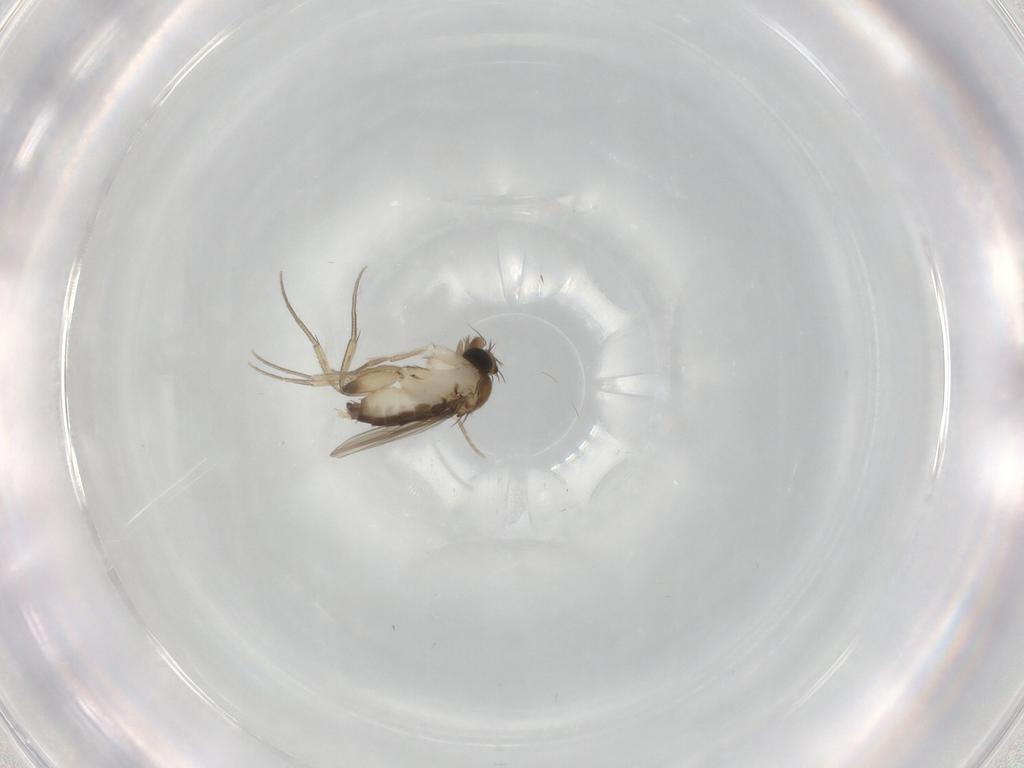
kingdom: Animalia
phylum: Arthropoda
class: Insecta
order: Diptera
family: Phoridae
